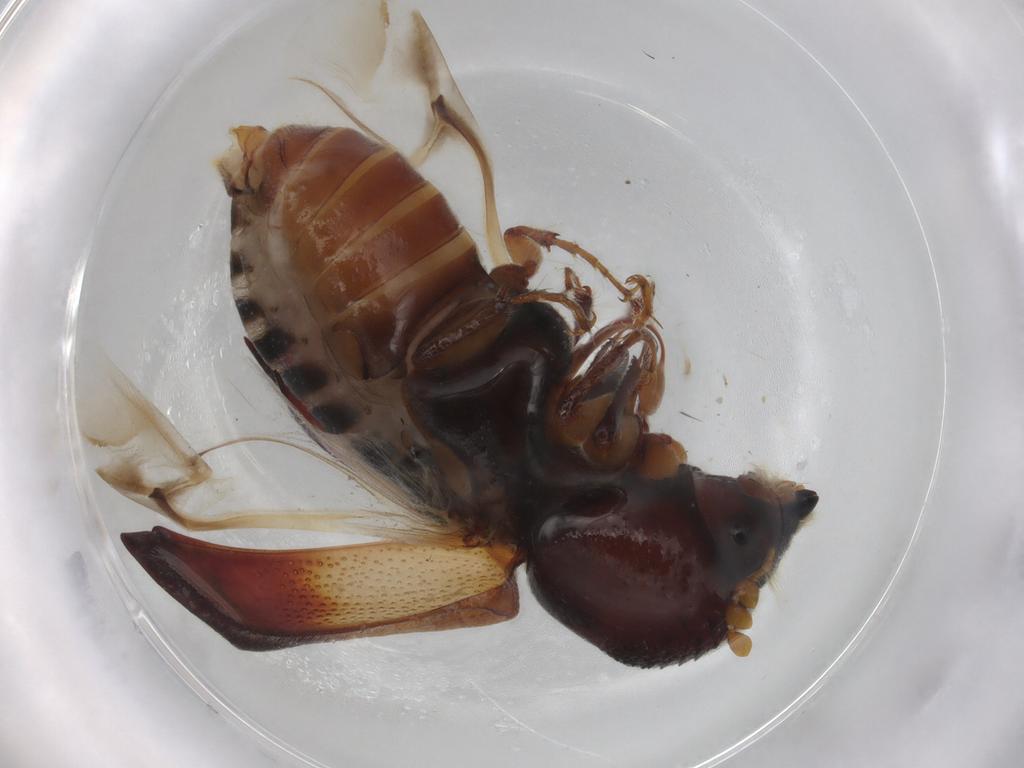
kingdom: Animalia
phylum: Arthropoda
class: Insecta
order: Coleoptera
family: Bostrichidae
